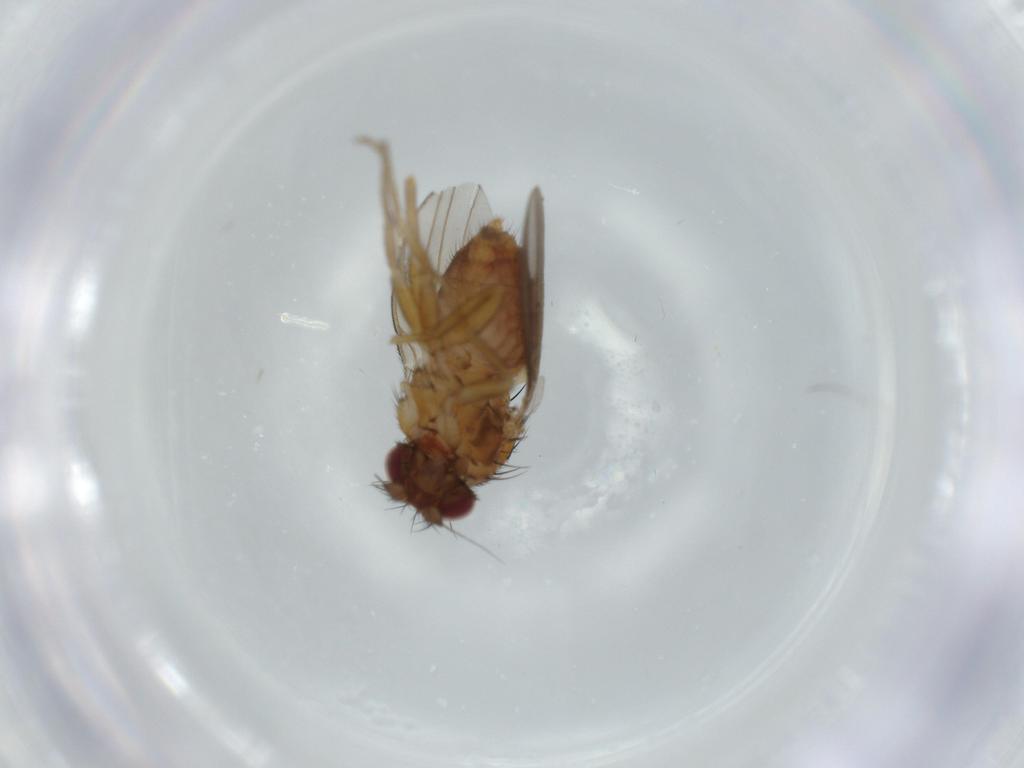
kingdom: Animalia
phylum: Arthropoda
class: Insecta
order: Diptera
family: Milichiidae
